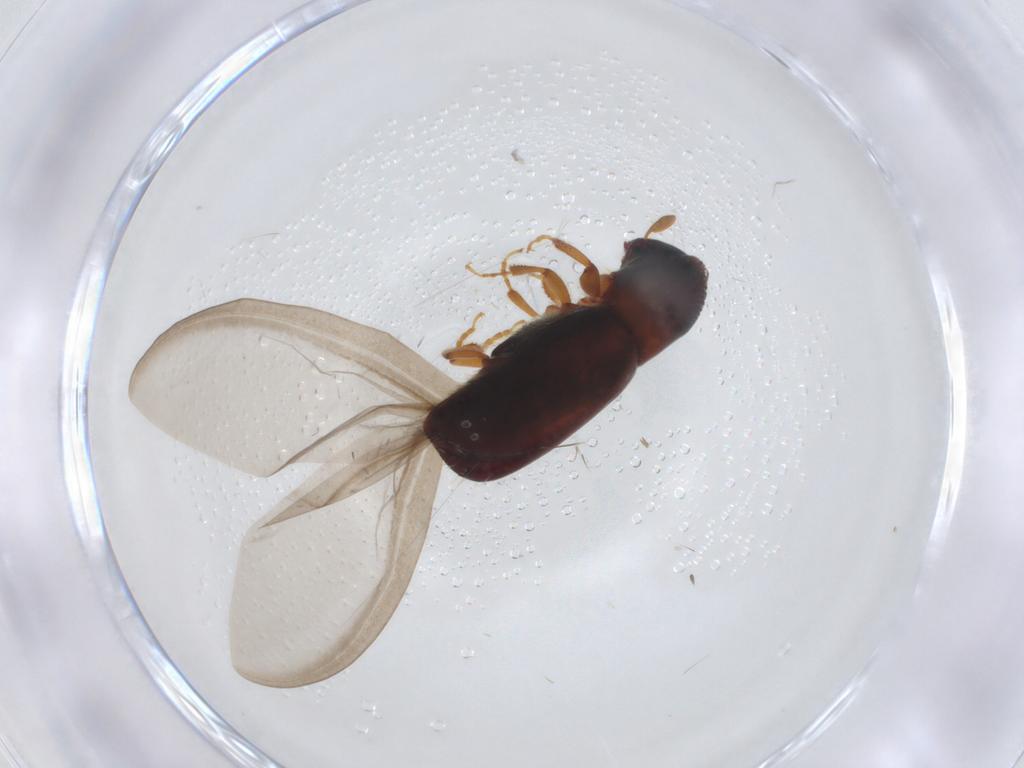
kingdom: Animalia
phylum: Arthropoda
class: Insecta
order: Coleoptera
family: Curculionidae
